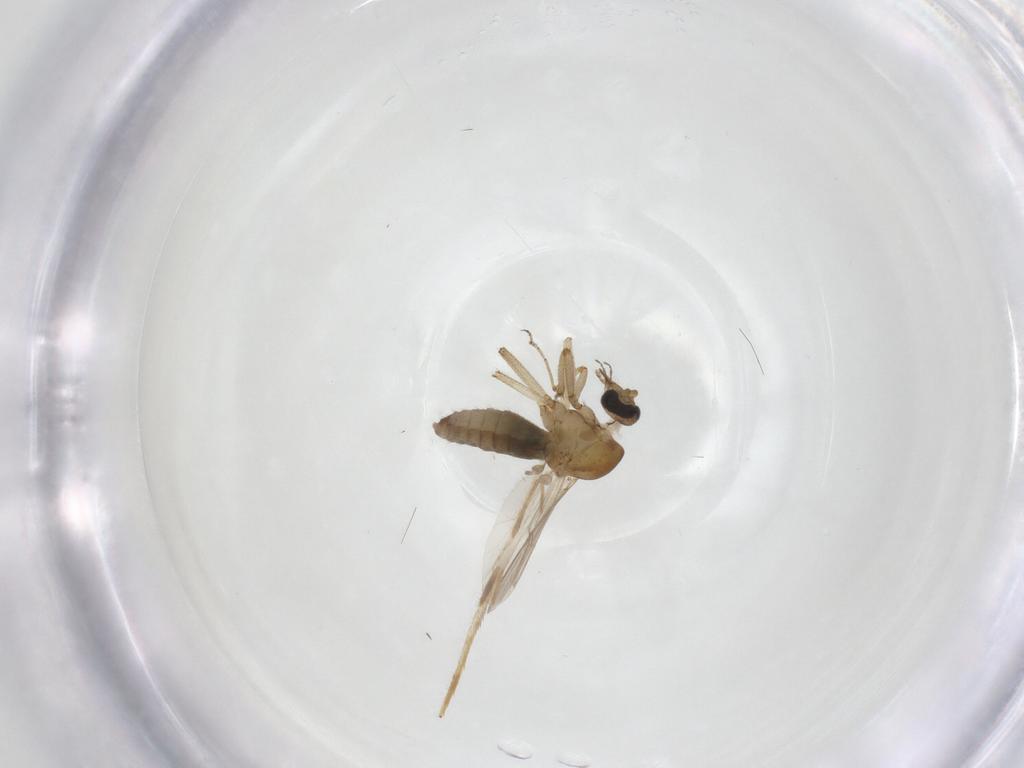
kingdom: Animalia
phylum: Arthropoda
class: Insecta
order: Diptera
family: Ceratopogonidae
